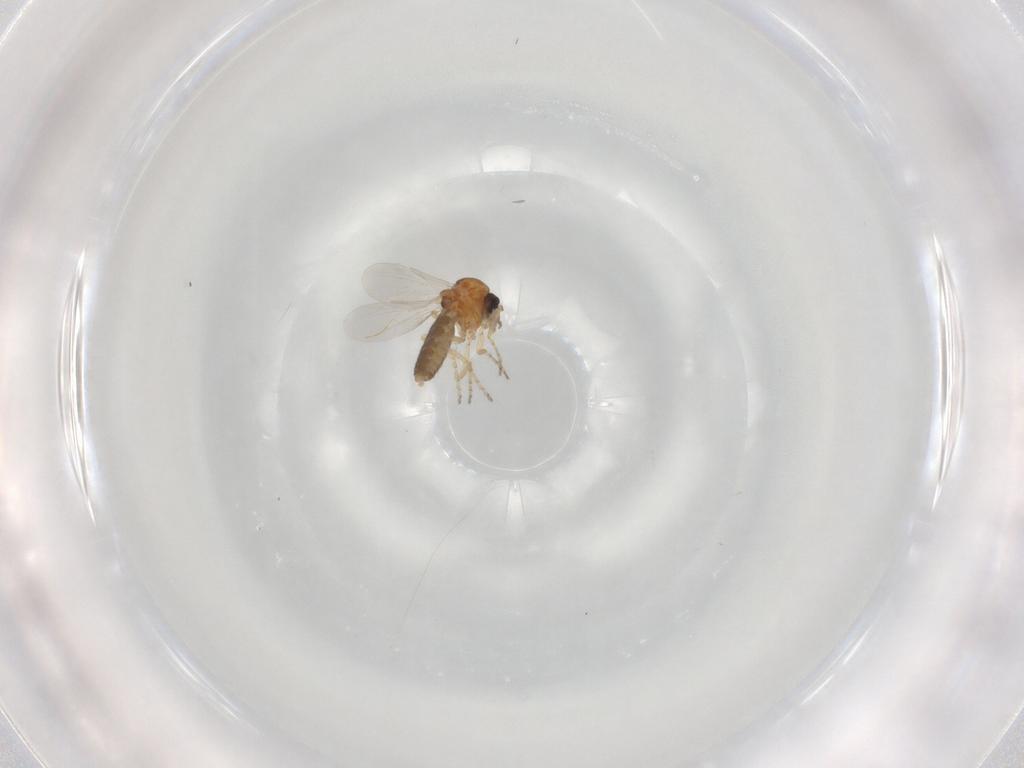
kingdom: Animalia
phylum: Arthropoda
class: Insecta
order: Diptera
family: Ceratopogonidae
